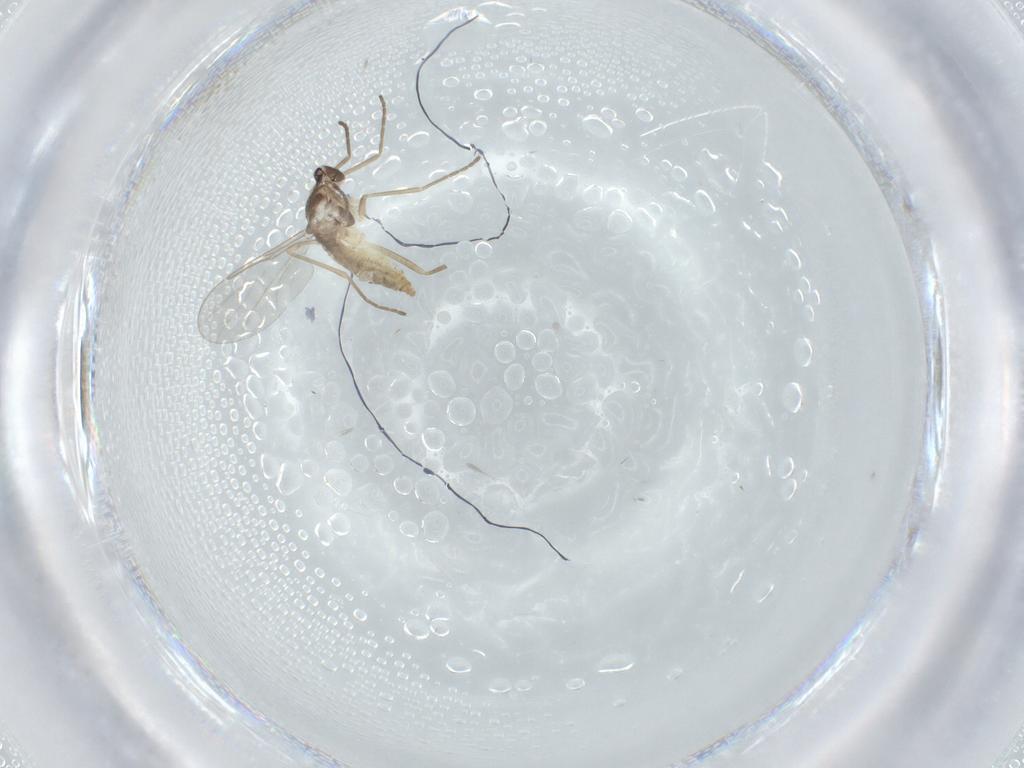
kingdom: Animalia
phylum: Arthropoda
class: Insecta
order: Diptera
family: Cecidomyiidae
